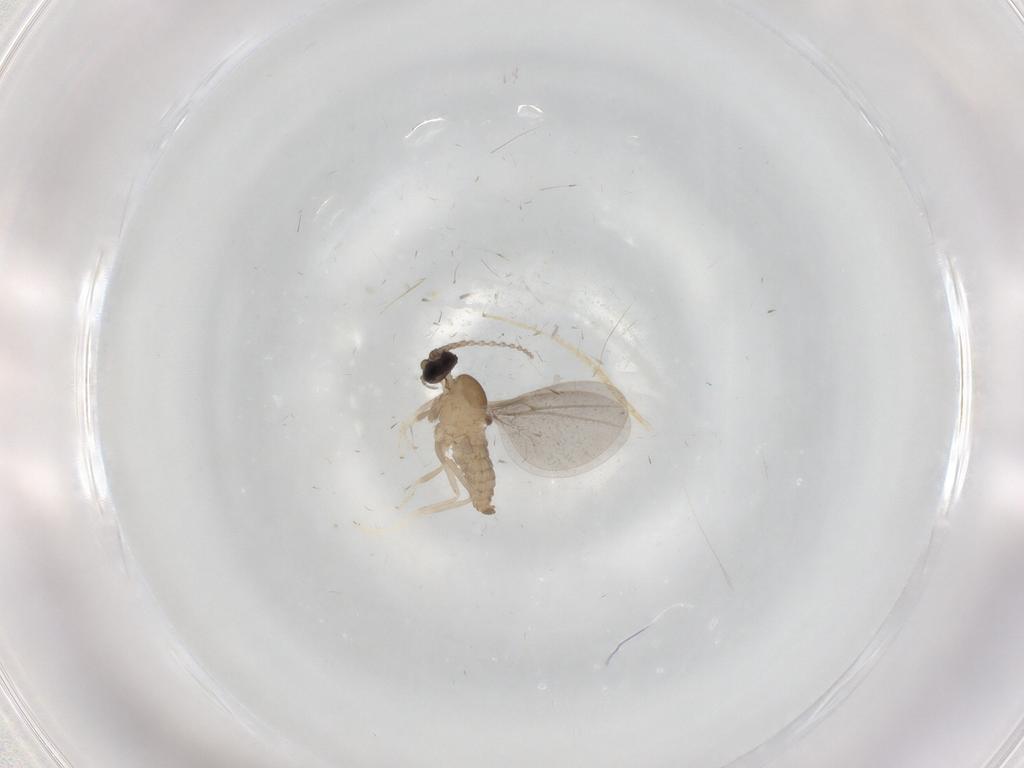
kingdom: Animalia
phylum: Arthropoda
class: Insecta
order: Diptera
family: Cecidomyiidae
